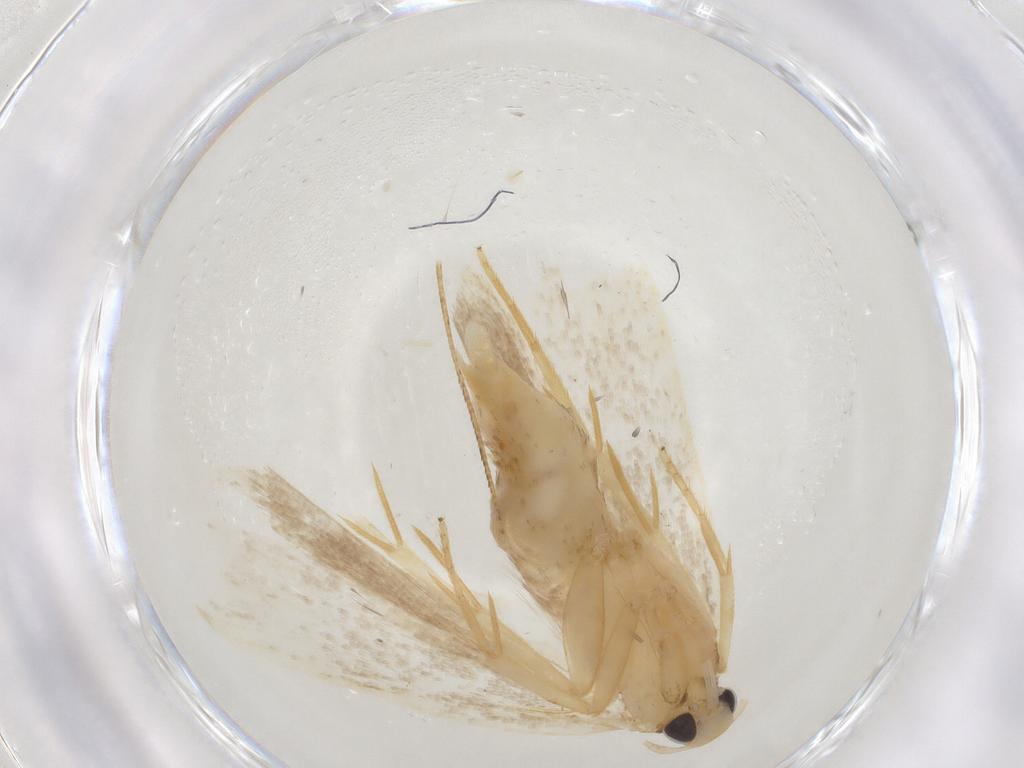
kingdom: Animalia
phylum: Arthropoda
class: Insecta
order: Lepidoptera
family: Gelechiidae
